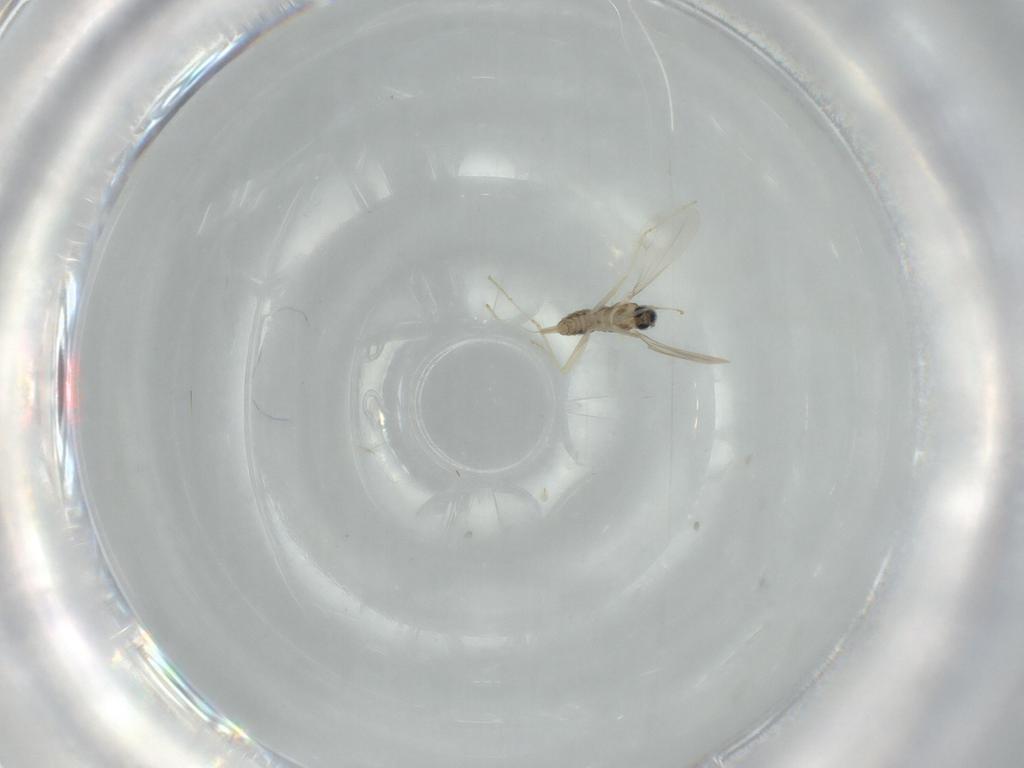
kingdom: Animalia
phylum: Arthropoda
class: Insecta
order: Diptera
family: Cecidomyiidae
